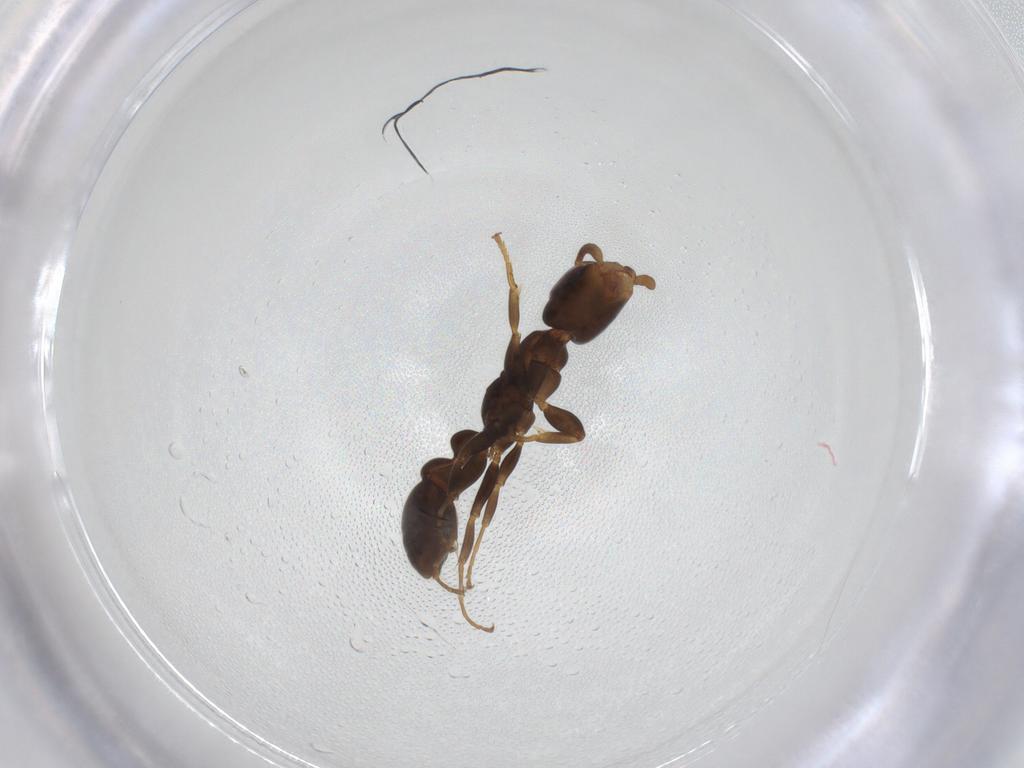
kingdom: Animalia
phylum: Arthropoda
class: Insecta
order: Hymenoptera
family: Formicidae
